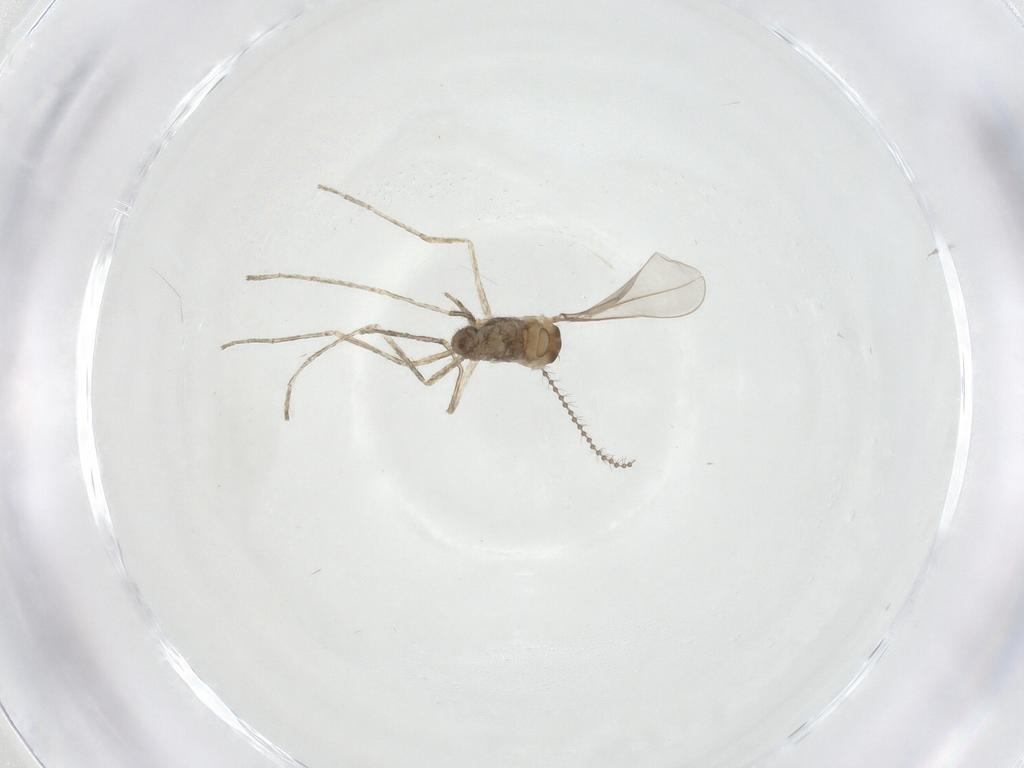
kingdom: Animalia
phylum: Arthropoda
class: Insecta
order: Diptera
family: Cecidomyiidae
